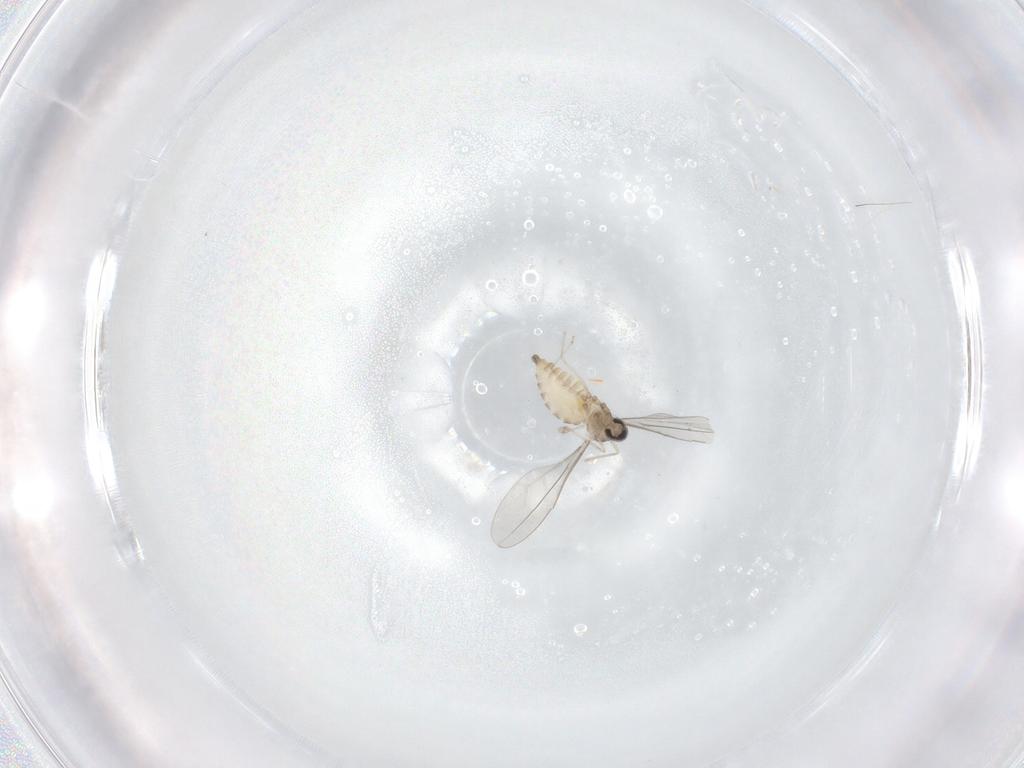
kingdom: Animalia
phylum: Arthropoda
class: Insecta
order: Diptera
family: Cecidomyiidae
